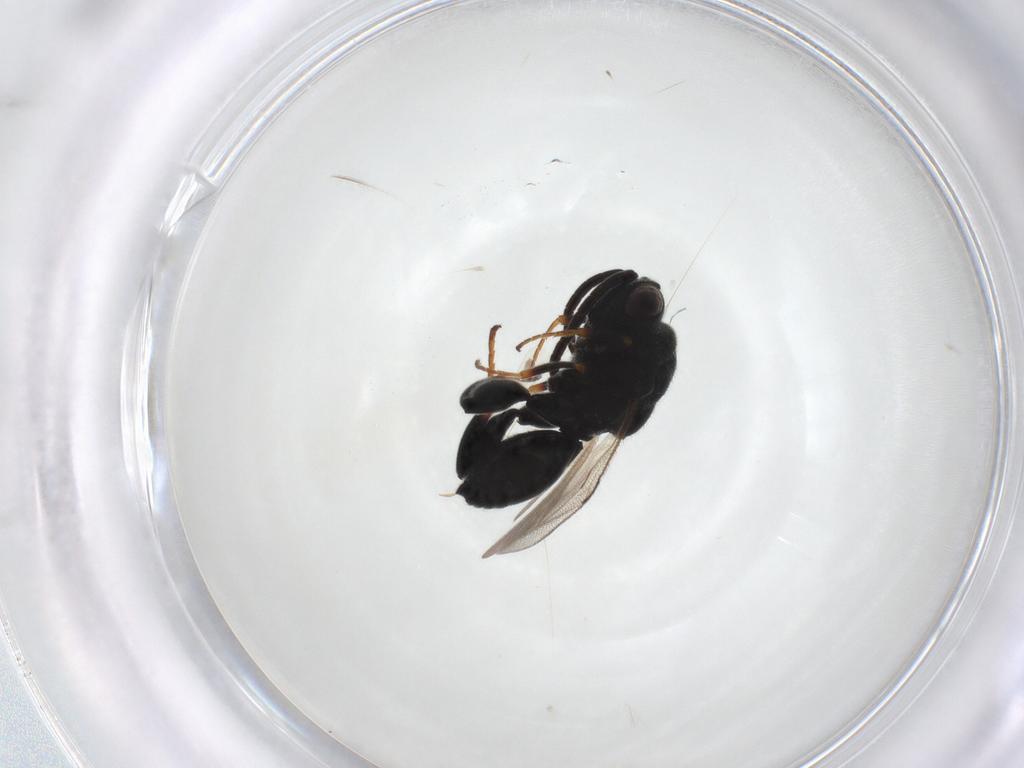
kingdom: Animalia
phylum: Arthropoda
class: Insecta
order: Hymenoptera
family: Chalcididae
